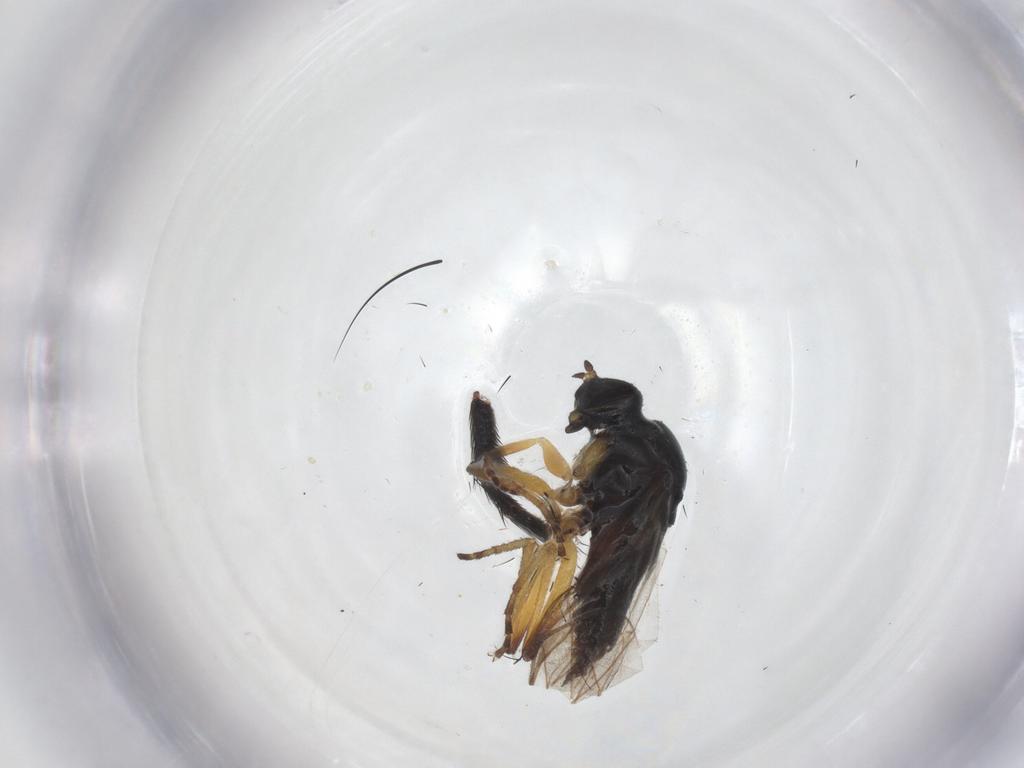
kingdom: Animalia
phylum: Arthropoda
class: Insecta
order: Diptera
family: Hybotidae
